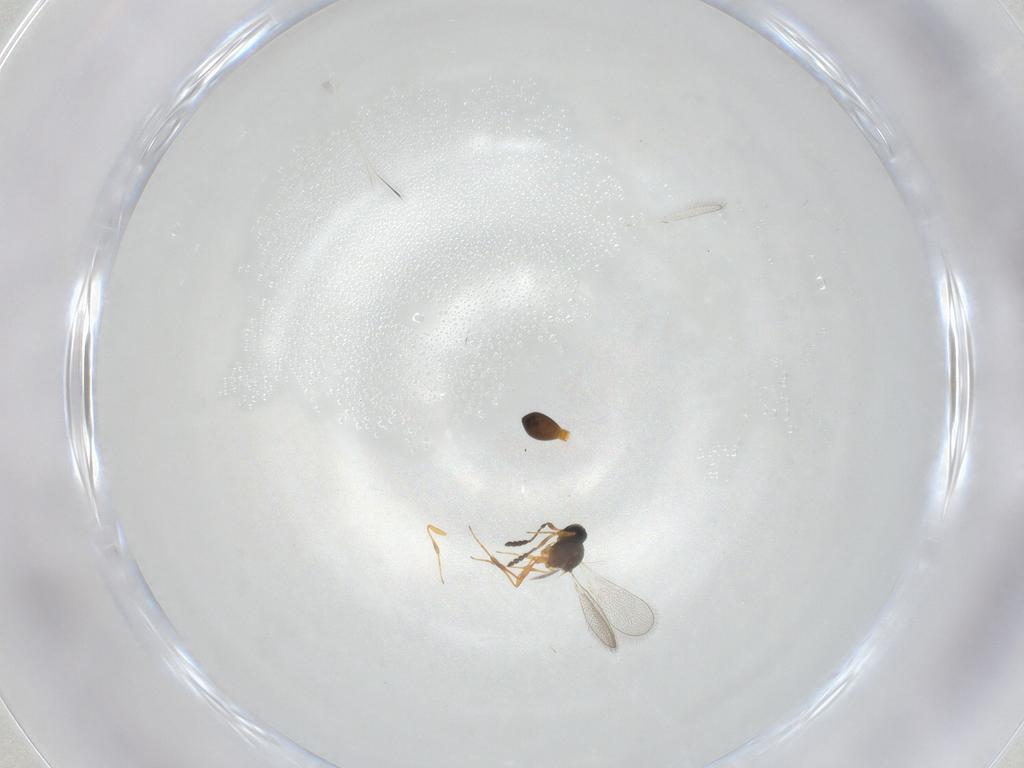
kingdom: Animalia
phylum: Arthropoda
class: Insecta
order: Hymenoptera
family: Platygastridae
